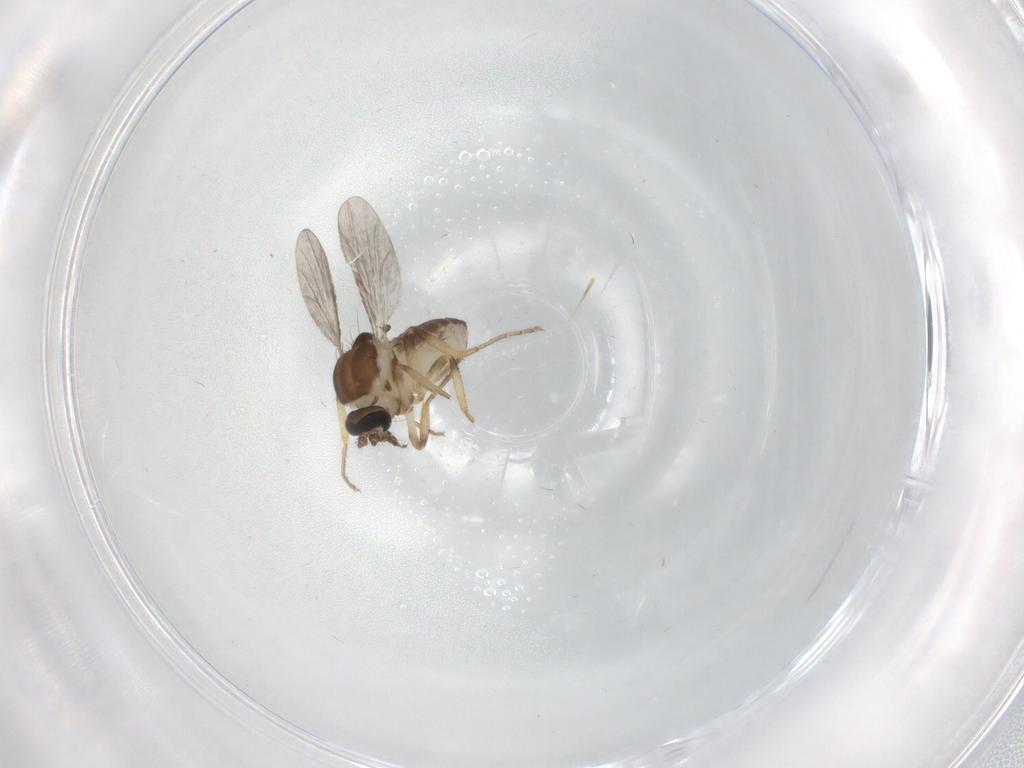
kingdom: Animalia
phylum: Arthropoda
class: Insecta
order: Diptera
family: Ceratopogonidae
